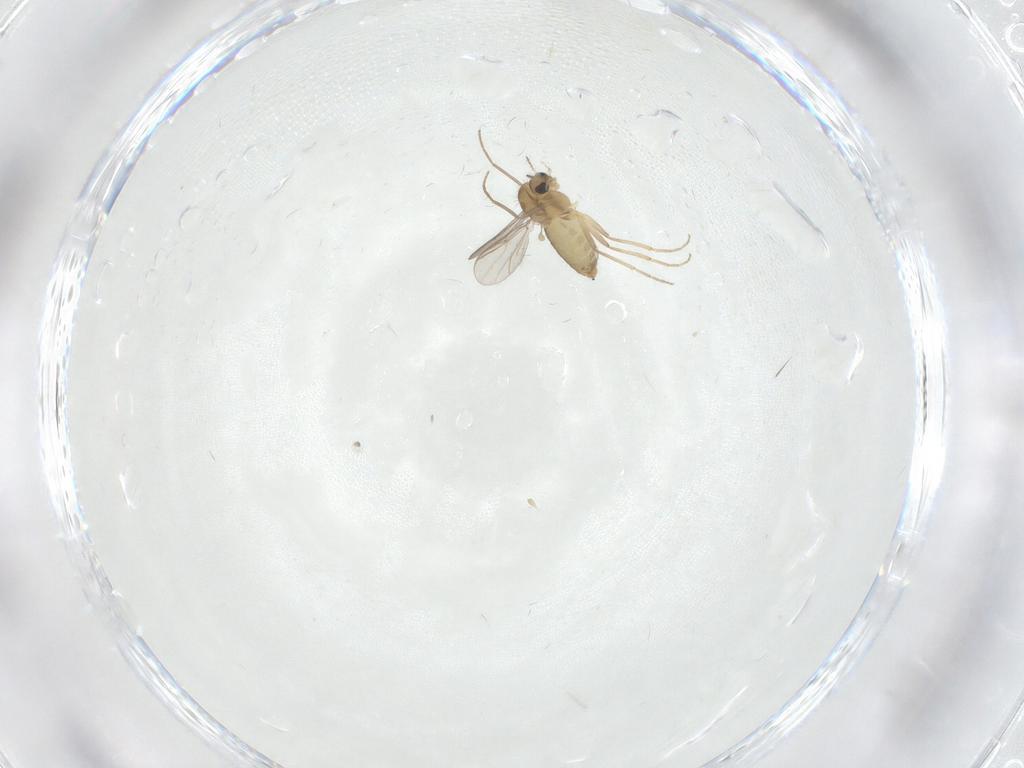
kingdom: Animalia
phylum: Arthropoda
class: Insecta
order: Diptera
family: Chironomidae
